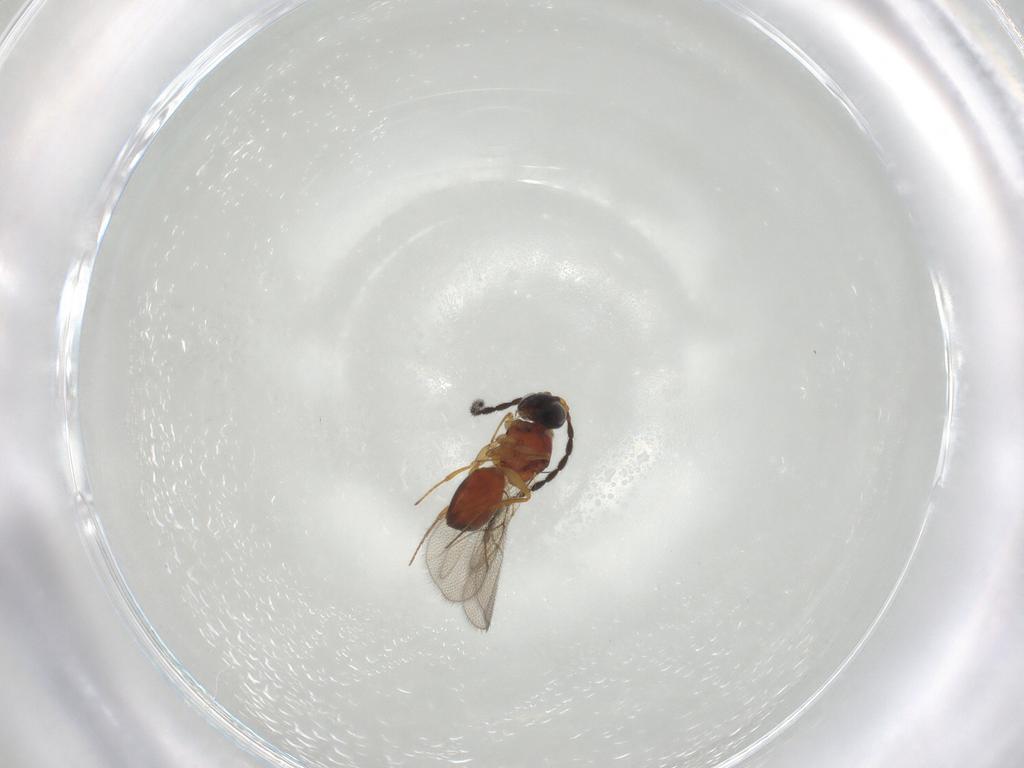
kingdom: Animalia
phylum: Arthropoda
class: Insecta
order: Hymenoptera
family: Figitidae
